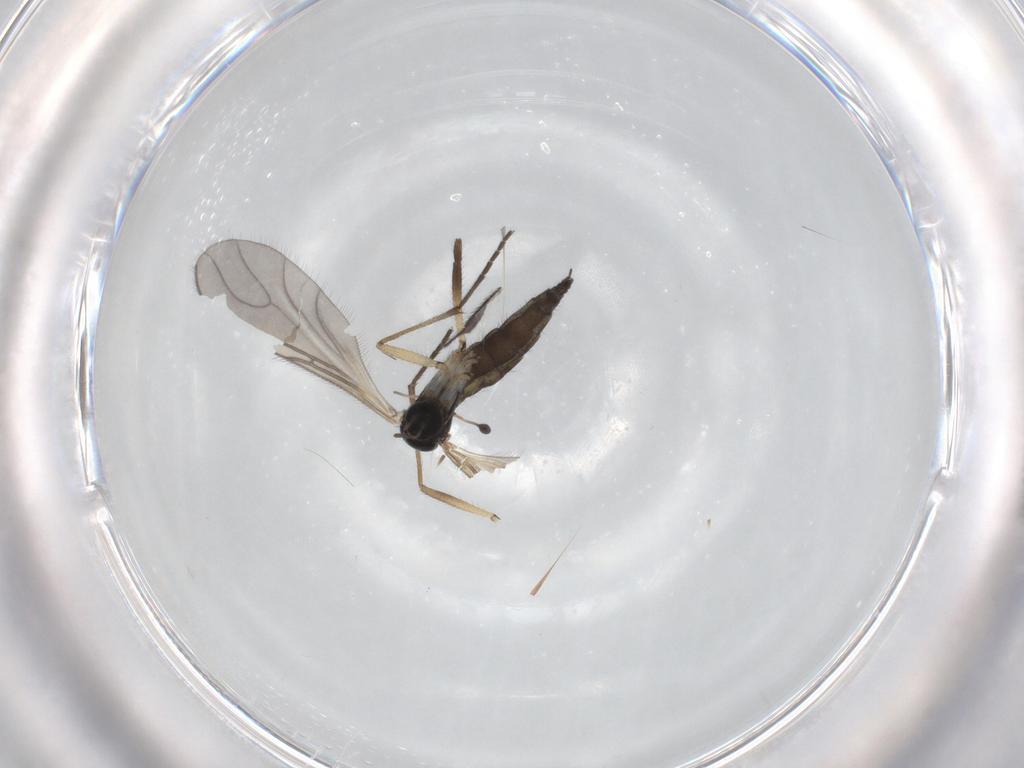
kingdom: Animalia
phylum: Arthropoda
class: Insecta
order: Diptera
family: Sciaridae
